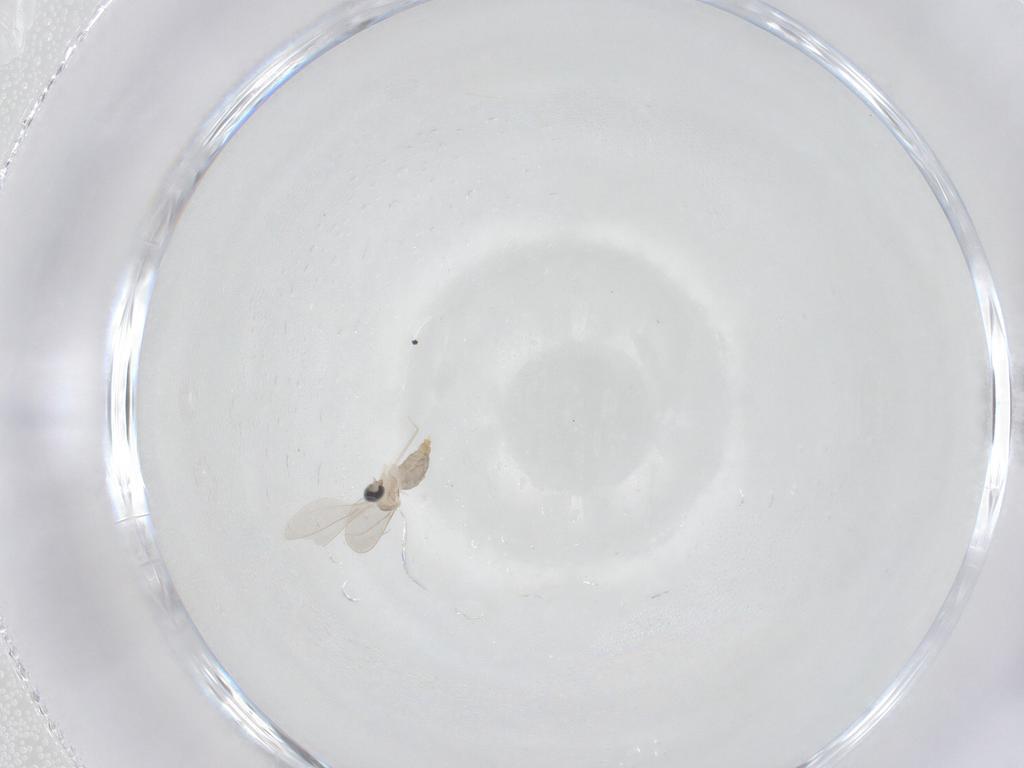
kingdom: Animalia
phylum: Arthropoda
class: Insecta
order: Diptera
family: Cecidomyiidae
